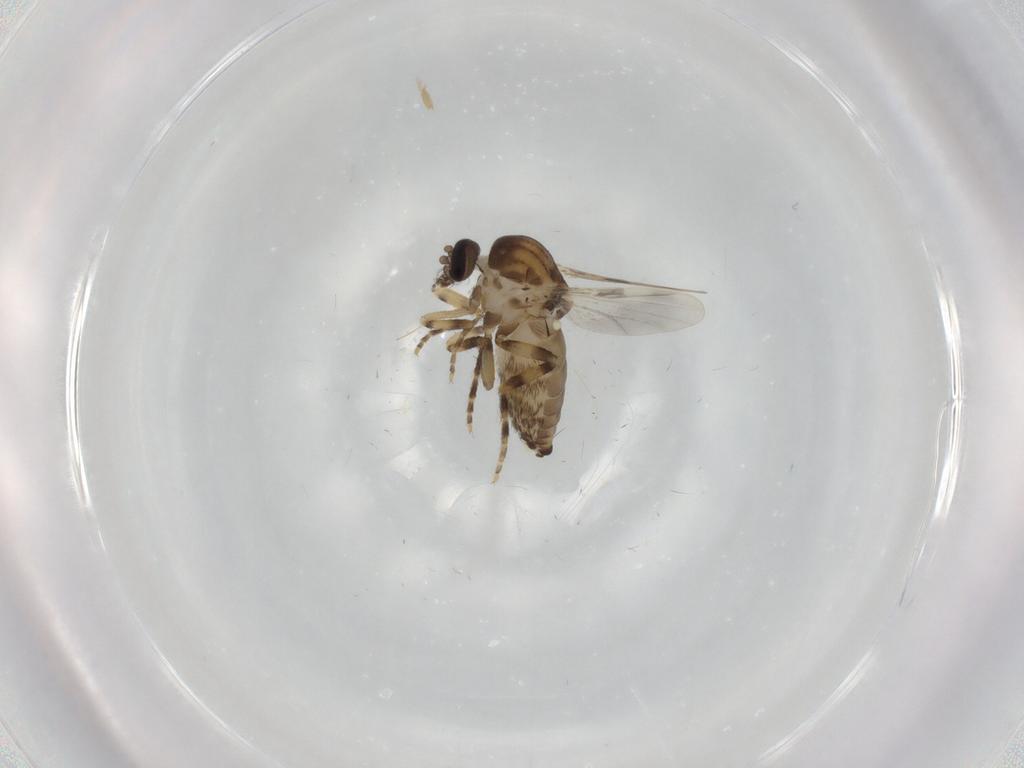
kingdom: Animalia
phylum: Arthropoda
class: Insecta
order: Diptera
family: Ceratopogonidae
